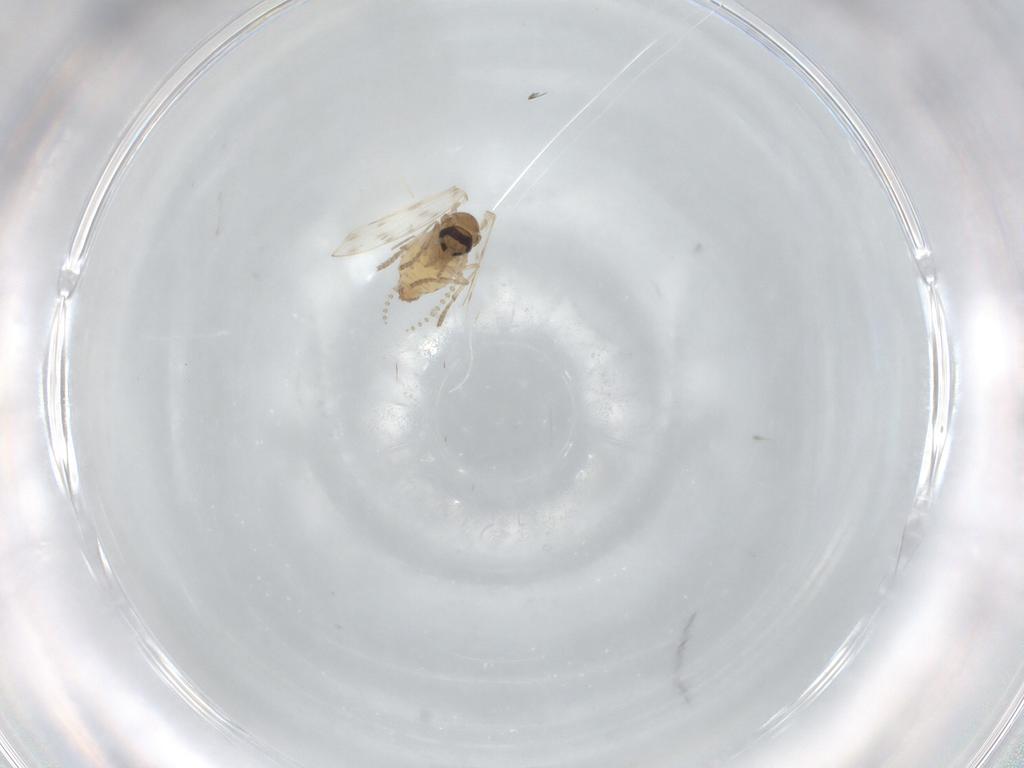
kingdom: Animalia
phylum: Arthropoda
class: Insecta
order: Diptera
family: Psychodidae
